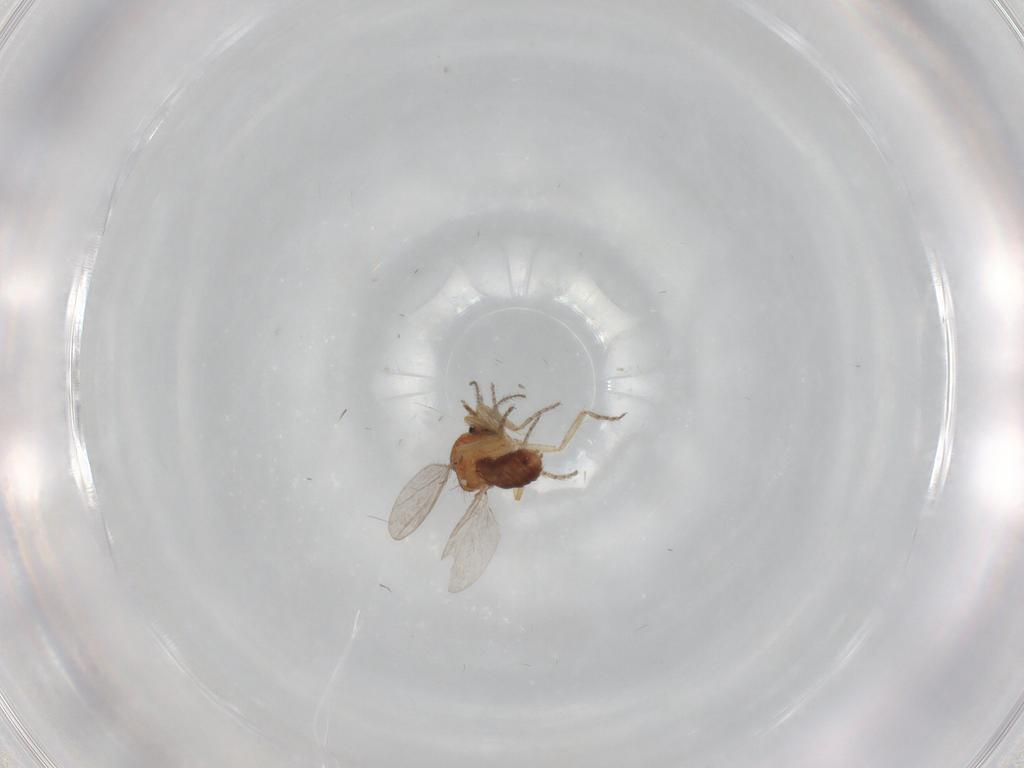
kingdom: Animalia
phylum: Arthropoda
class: Insecta
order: Diptera
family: Ceratopogonidae
